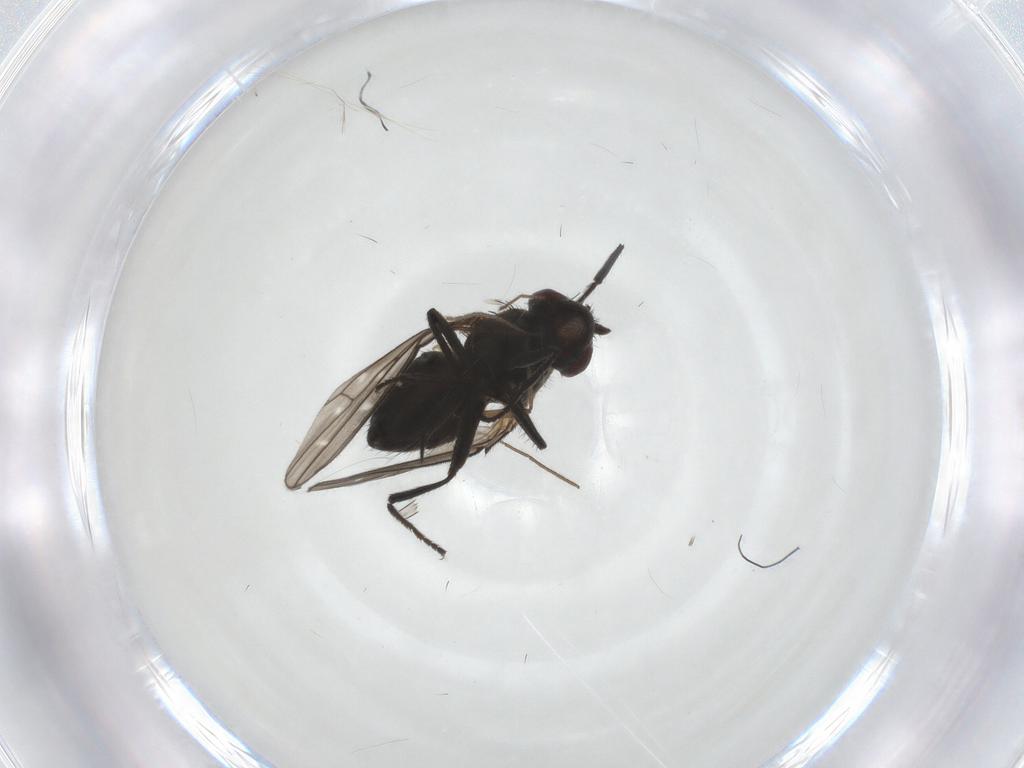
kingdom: Animalia
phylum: Arthropoda
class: Insecta
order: Diptera
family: Ephydridae
